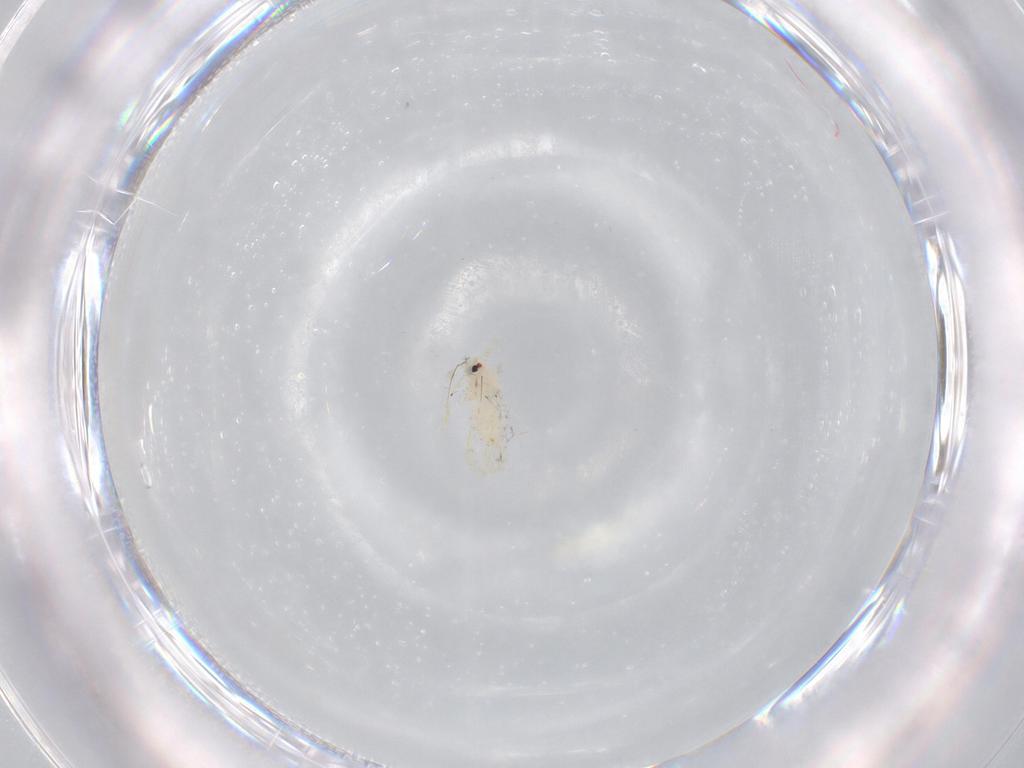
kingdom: Animalia
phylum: Arthropoda
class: Insecta
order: Hemiptera
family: Aleyrodidae
